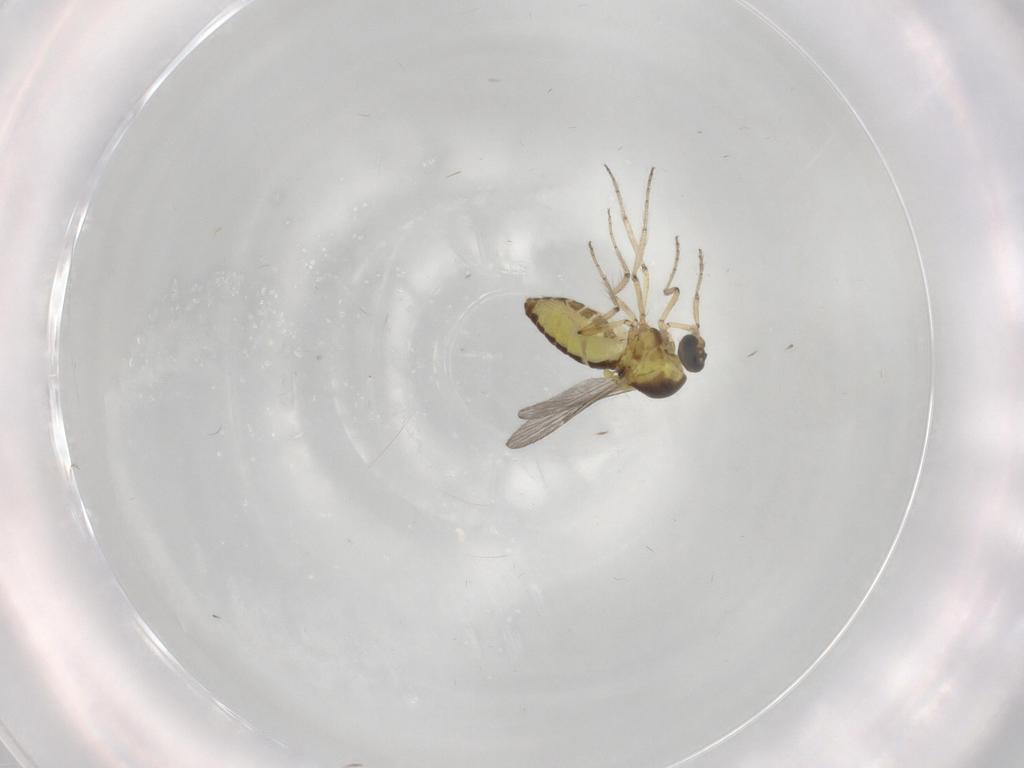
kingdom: Animalia
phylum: Arthropoda
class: Insecta
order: Diptera
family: Ceratopogonidae
